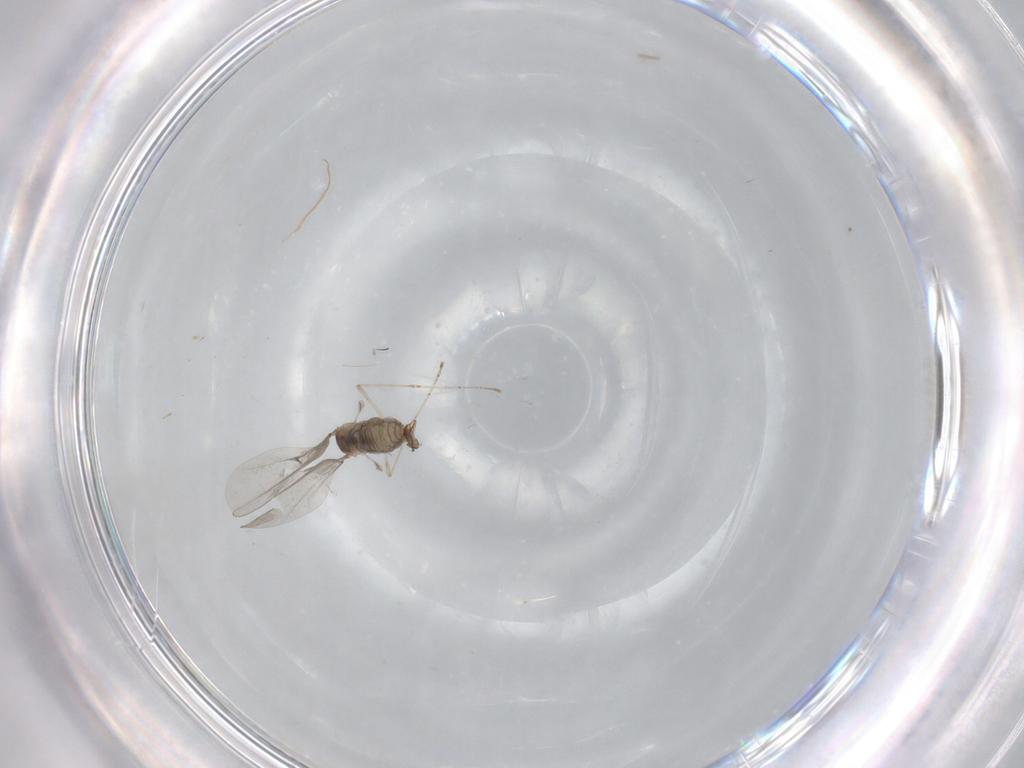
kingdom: Animalia
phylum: Arthropoda
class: Insecta
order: Diptera
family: Cecidomyiidae
